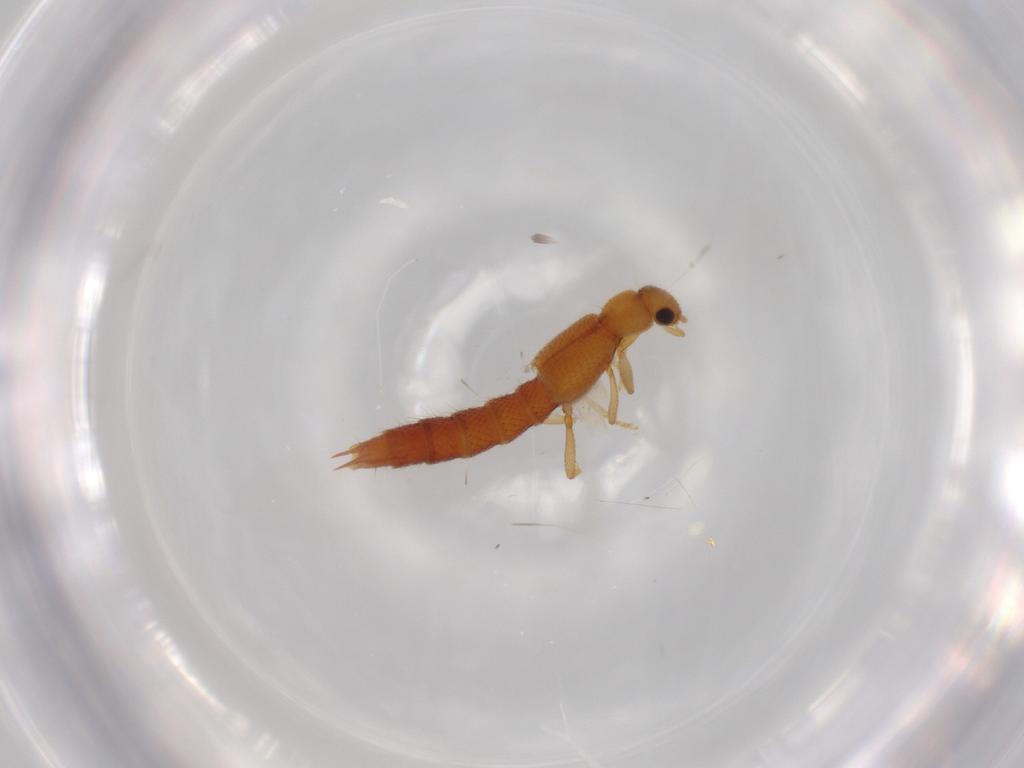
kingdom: Animalia
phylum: Arthropoda
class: Insecta
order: Coleoptera
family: Staphylinidae
